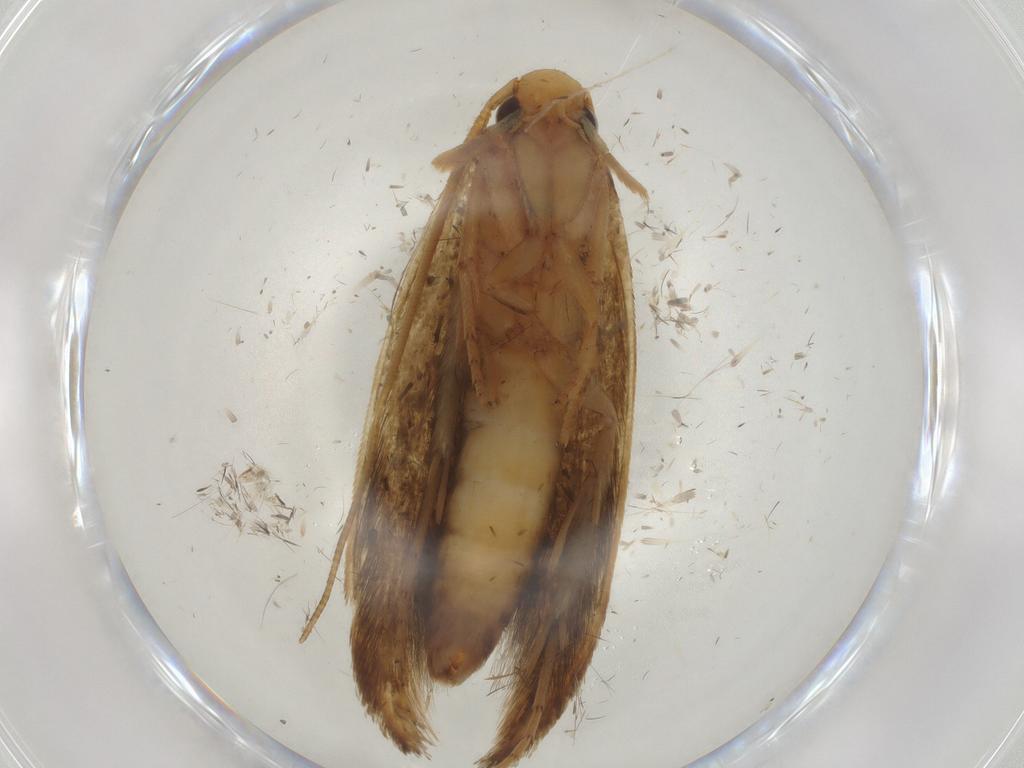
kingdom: Animalia
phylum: Arthropoda
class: Insecta
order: Lepidoptera
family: Tineidae
